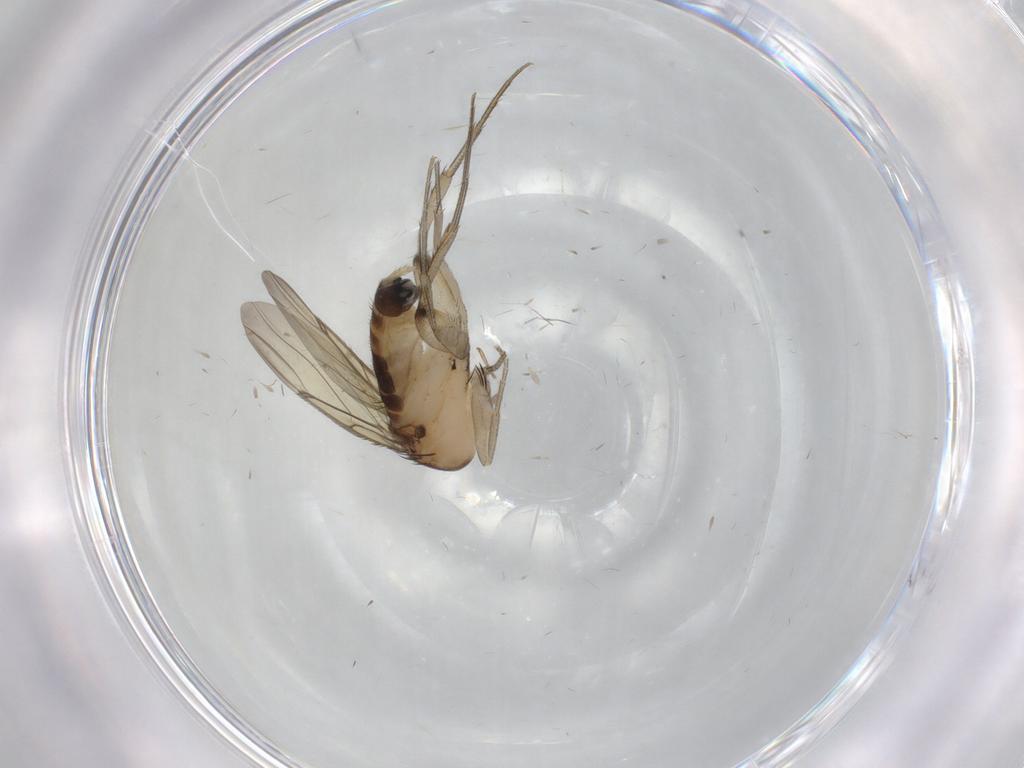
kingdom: Animalia
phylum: Arthropoda
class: Insecta
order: Diptera
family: Phoridae
